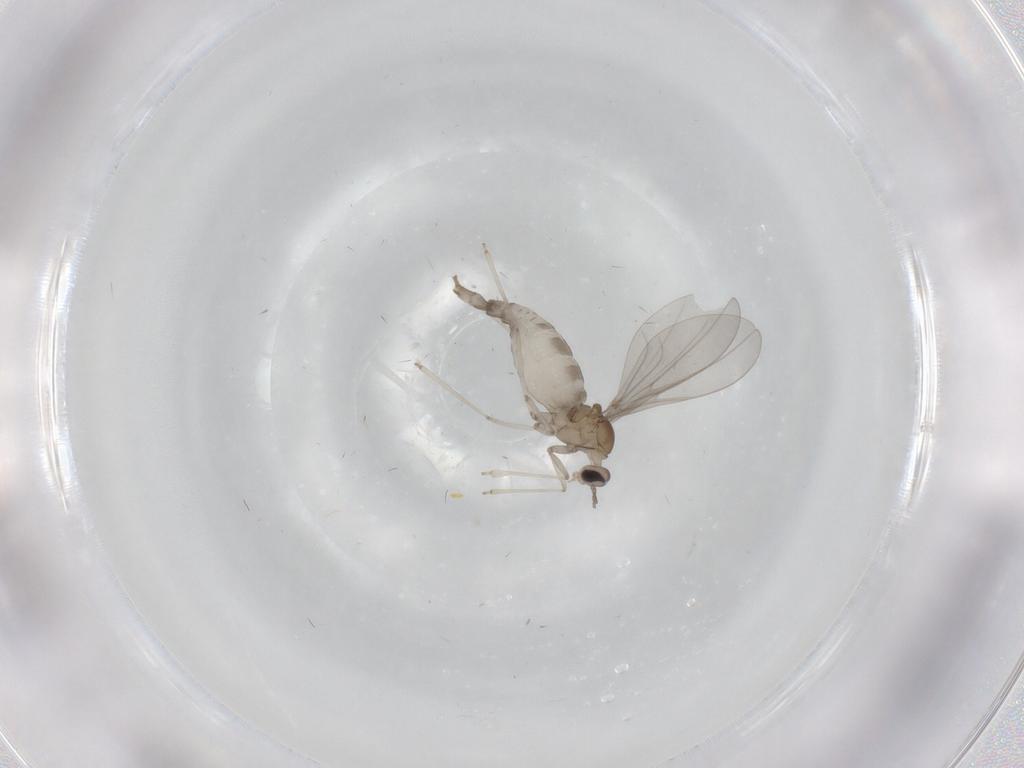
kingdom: Animalia
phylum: Arthropoda
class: Insecta
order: Diptera
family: Cecidomyiidae
